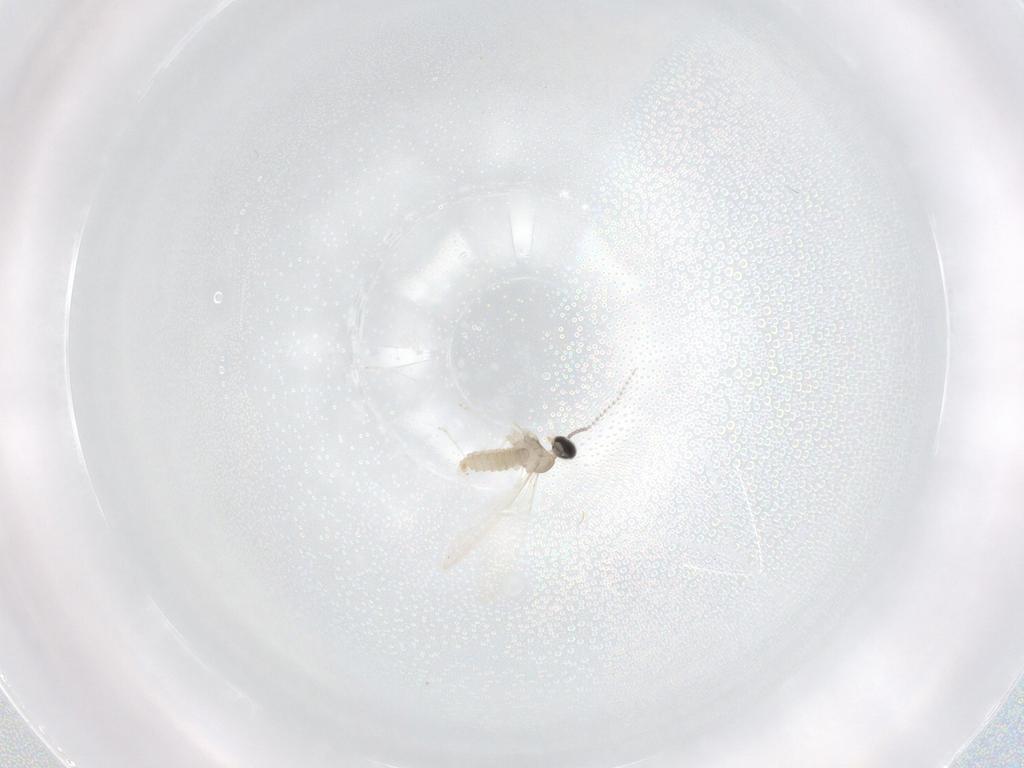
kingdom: Animalia
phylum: Arthropoda
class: Insecta
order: Diptera
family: Cecidomyiidae
